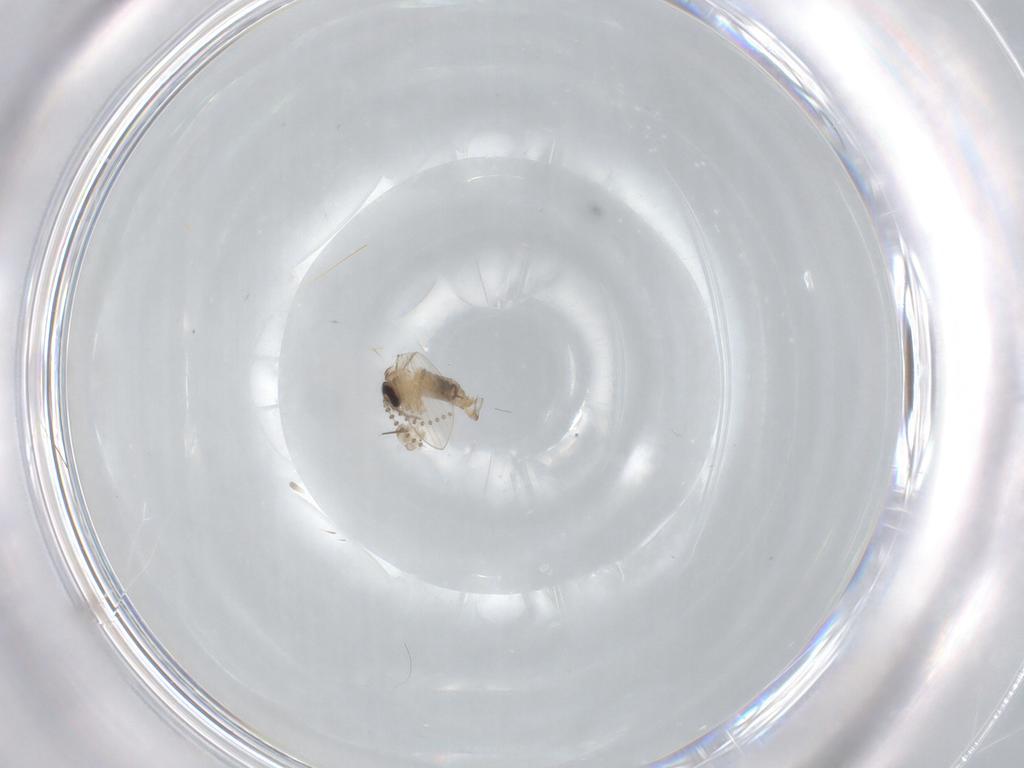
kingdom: Animalia
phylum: Arthropoda
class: Insecta
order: Diptera
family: Psychodidae
